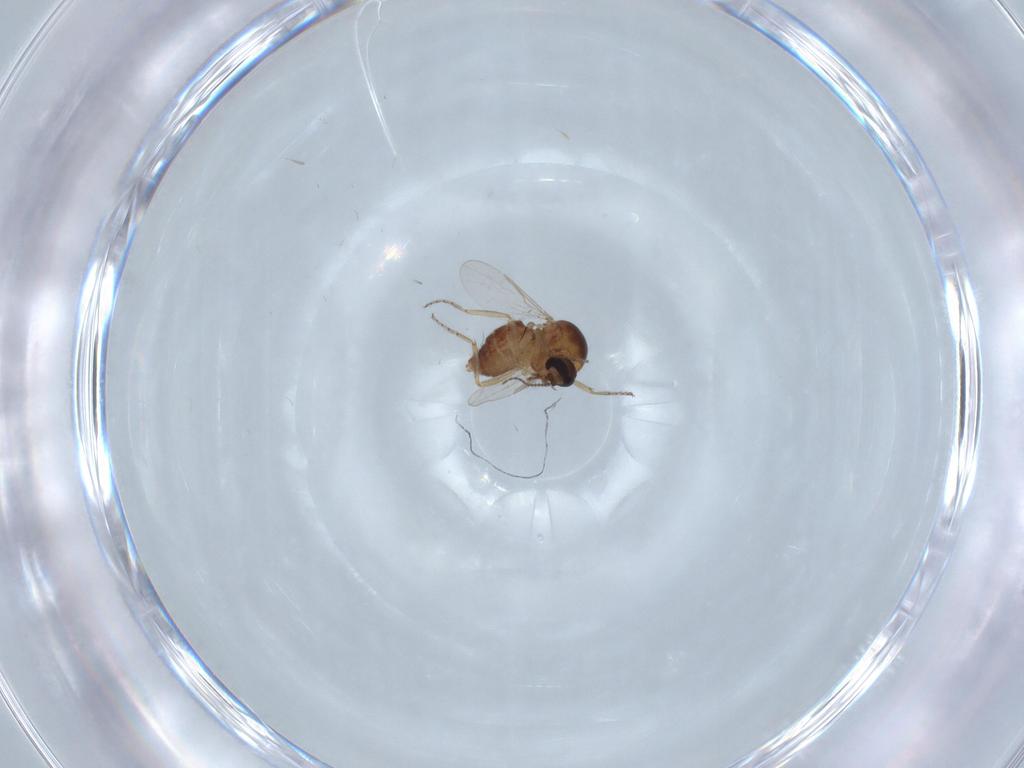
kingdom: Animalia
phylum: Arthropoda
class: Insecta
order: Diptera
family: Ceratopogonidae
